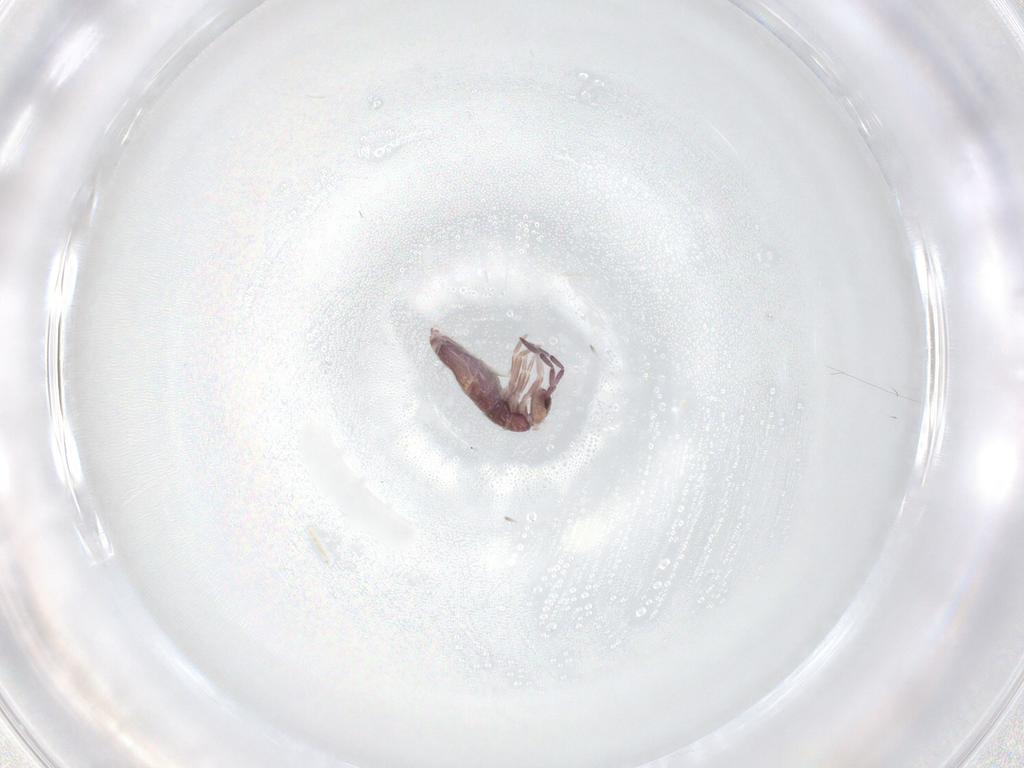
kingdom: Animalia
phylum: Arthropoda
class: Collembola
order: Entomobryomorpha
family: Entomobryidae
